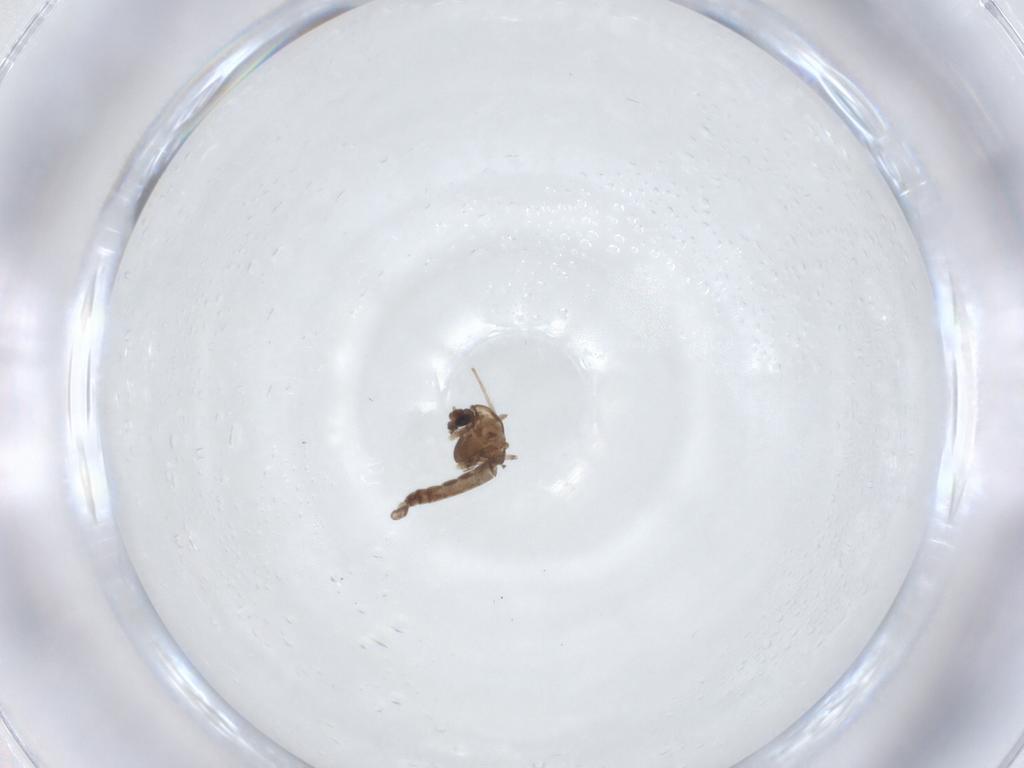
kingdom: Animalia
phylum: Arthropoda
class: Insecta
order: Diptera
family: Chironomidae
